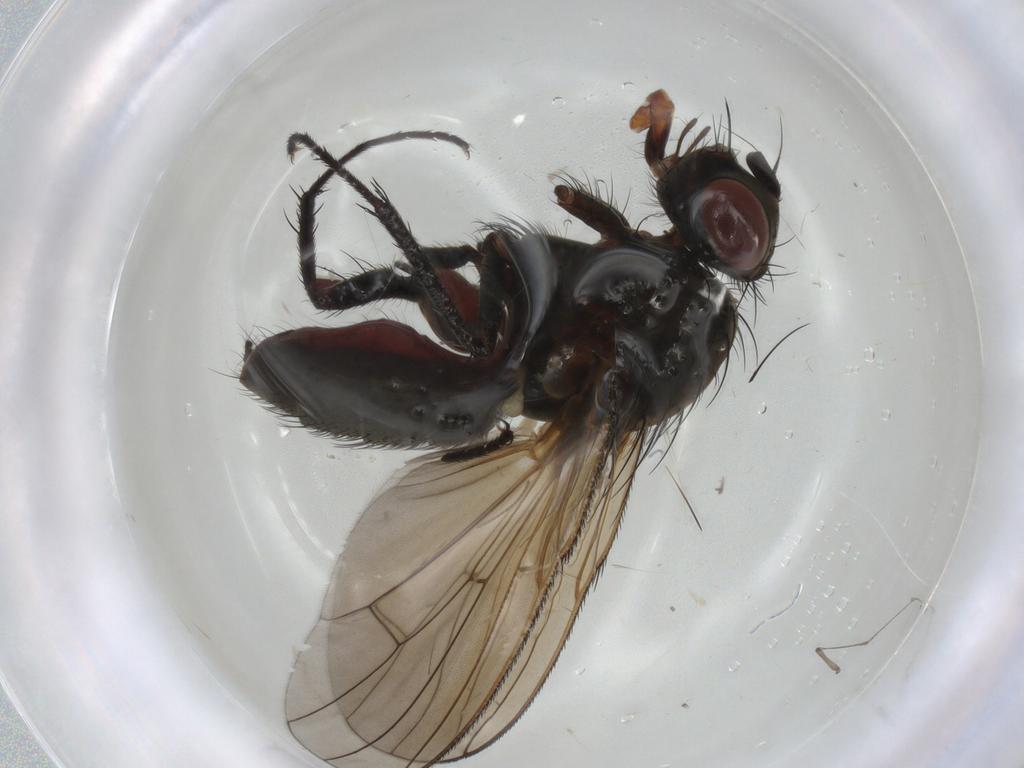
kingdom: Animalia
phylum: Arthropoda
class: Insecta
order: Diptera
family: Anthomyiidae
